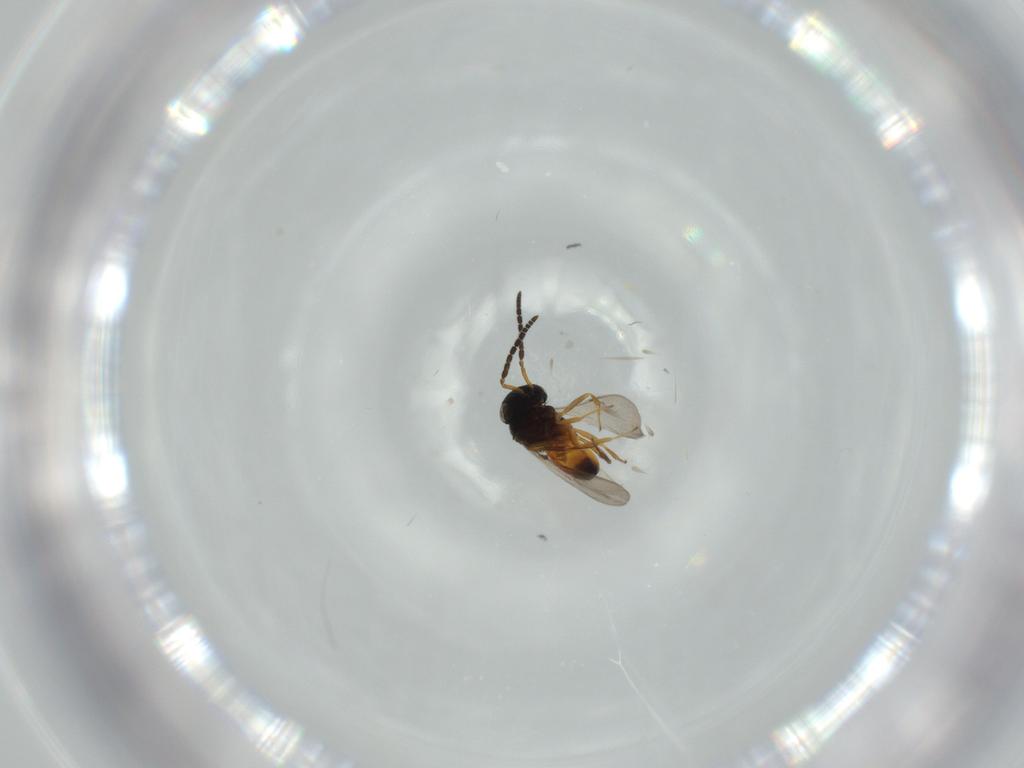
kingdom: Animalia
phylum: Arthropoda
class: Insecta
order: Hymenoptera
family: Scelionidae
